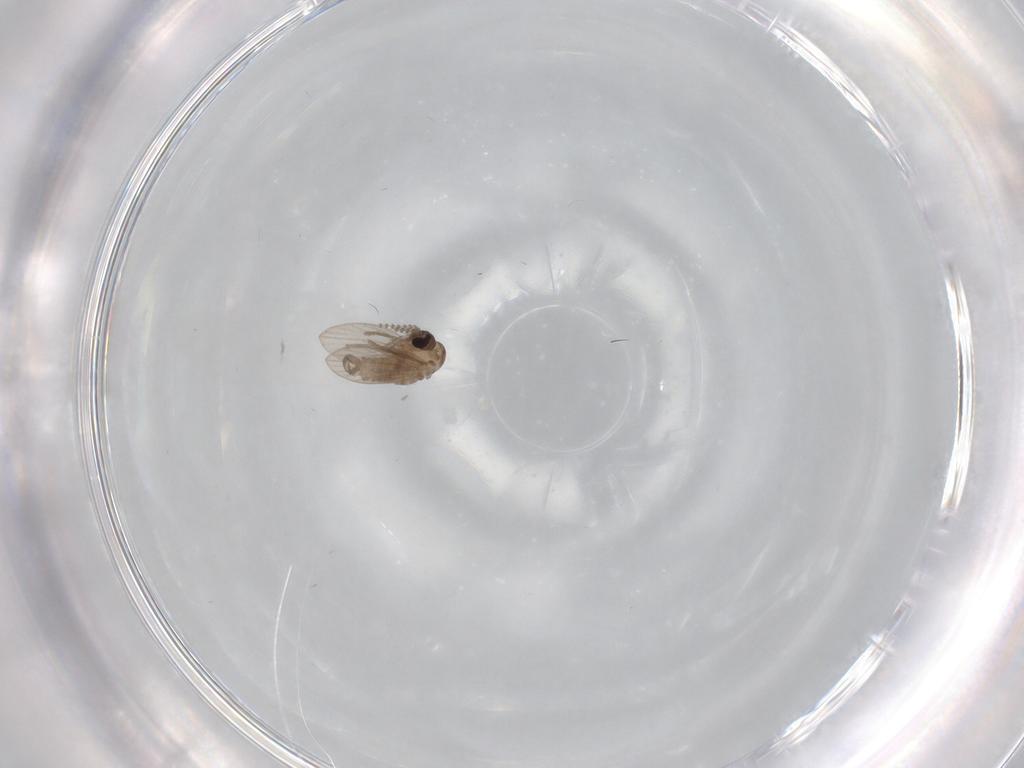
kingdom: Animalia
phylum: Arthropoda
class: Insecta
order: Diptera
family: Psychodidae
